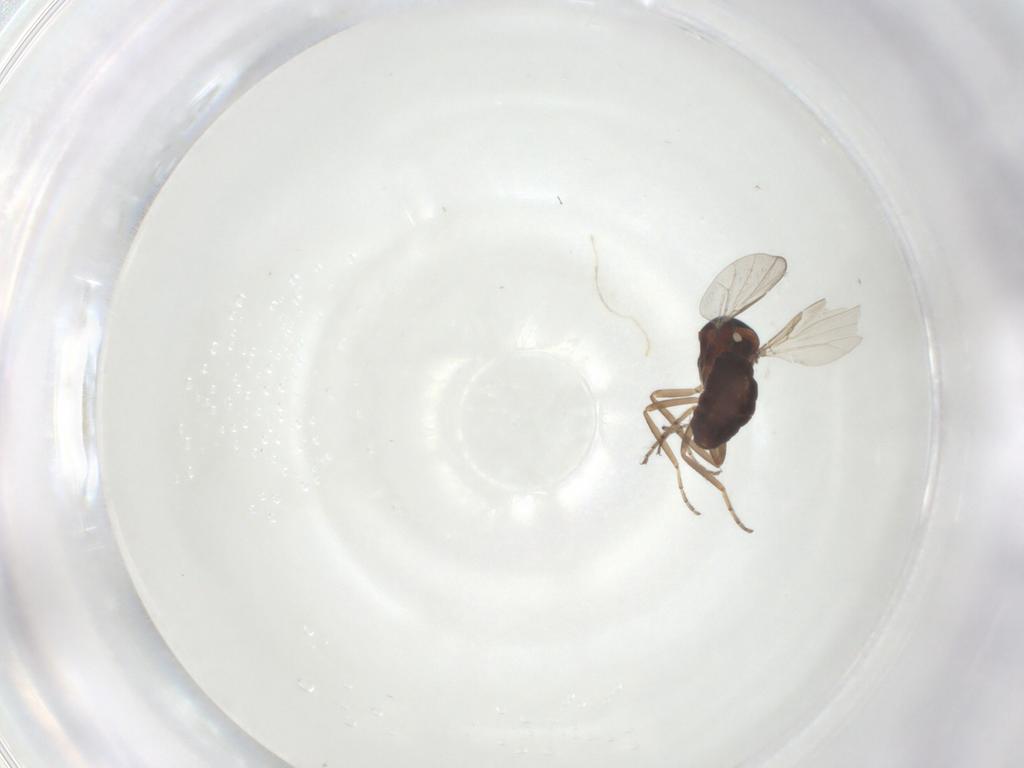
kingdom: Animalia
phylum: Arthropoda
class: Insecta
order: Diptera
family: Ceratopogonidae
